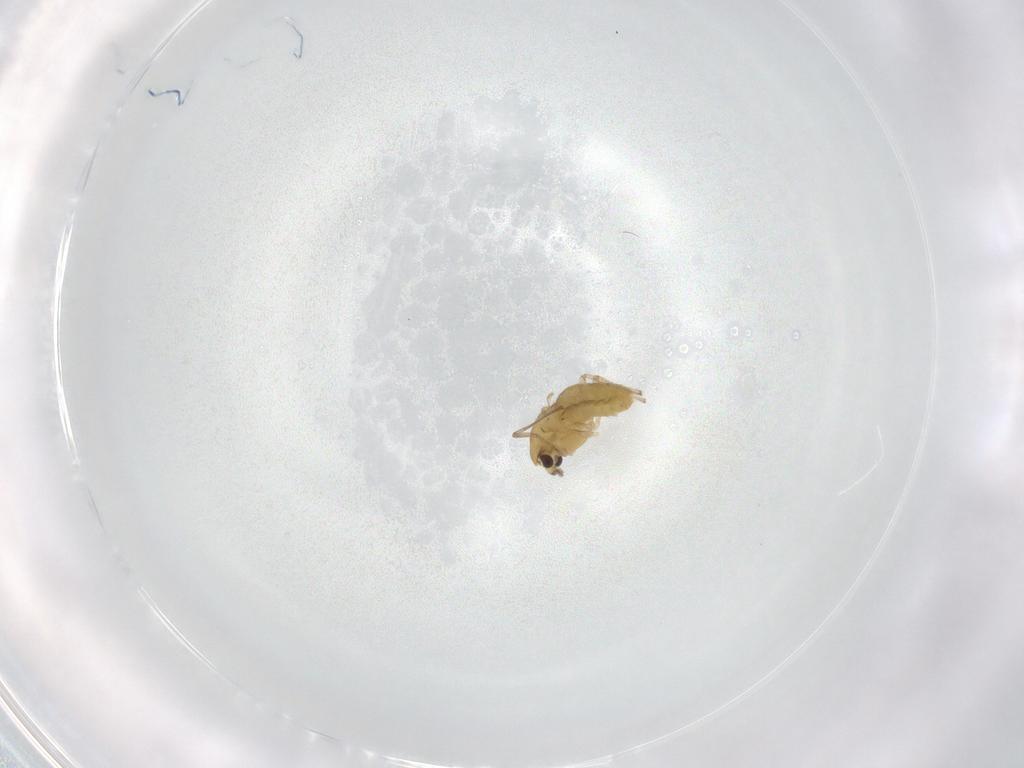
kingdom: Animalia
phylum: Arthropoda
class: Insecta
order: Diptera
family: Chironomidae
